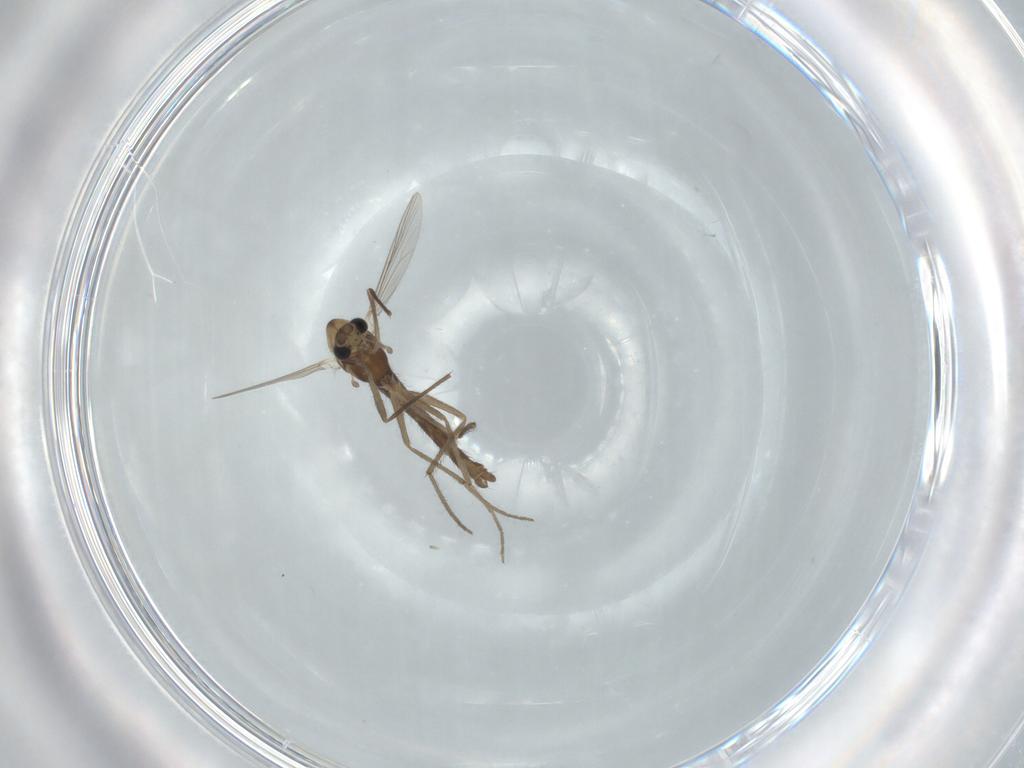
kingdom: Animalia
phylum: Arthropoda
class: Insecta
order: Diptera
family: Chironomidae
